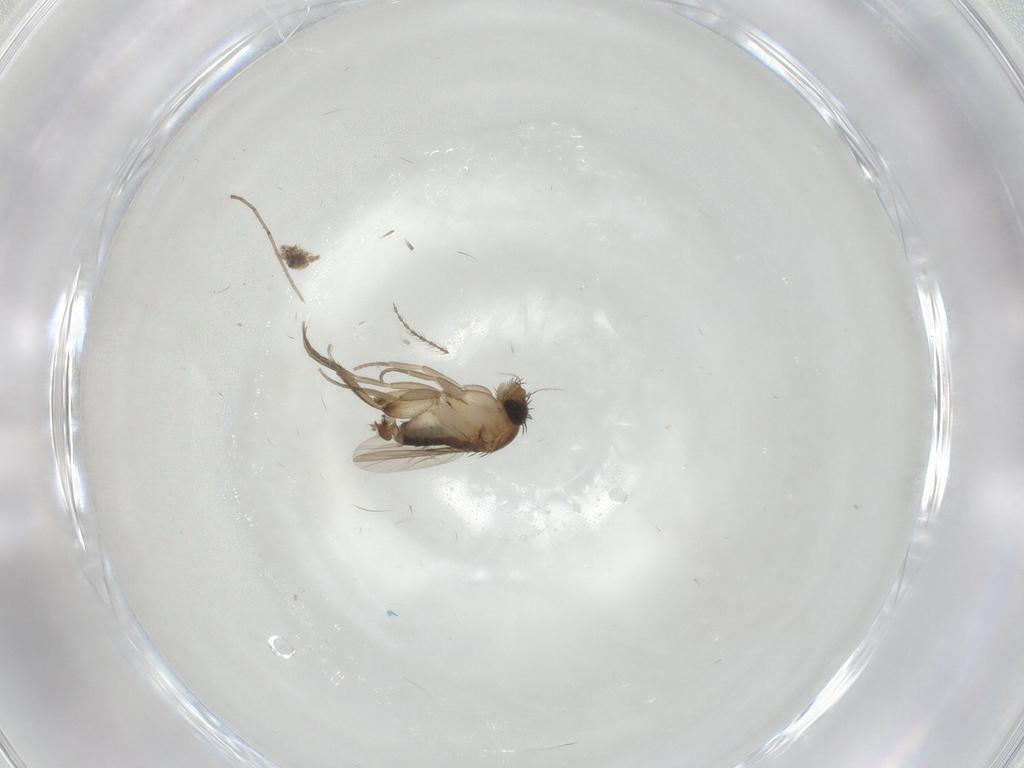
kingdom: Animalia
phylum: Arthropoda
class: Insecta
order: Diptera
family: Phoridae
